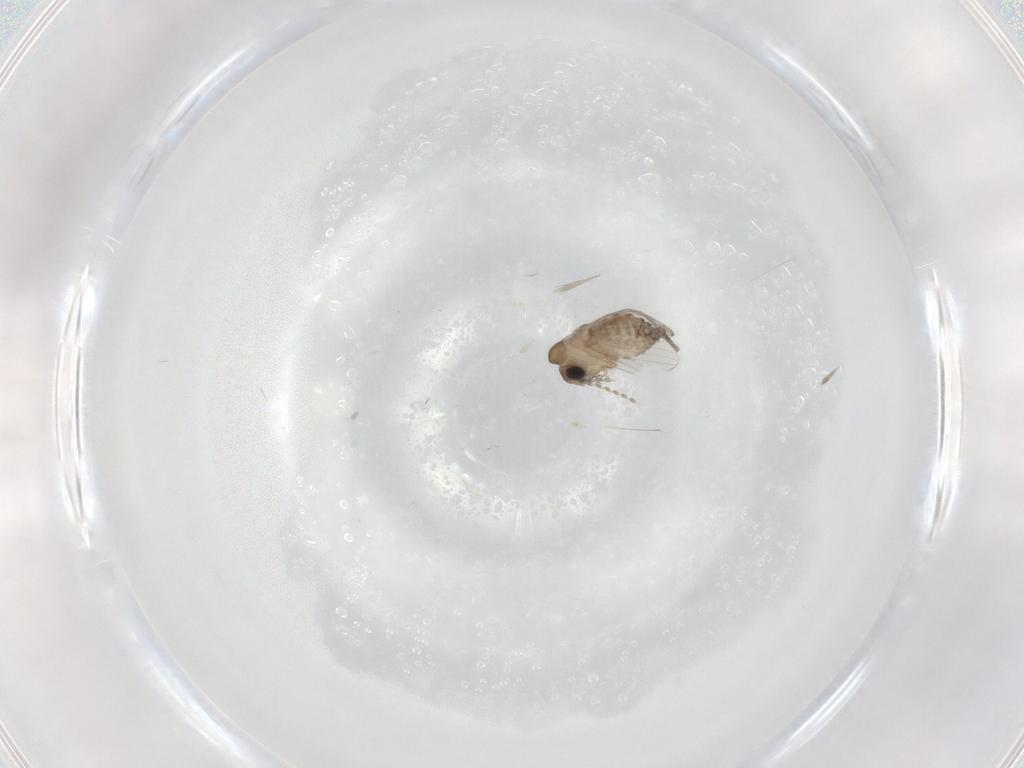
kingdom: Animalia
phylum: Arthropoda
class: Insecta
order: Diptera
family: Psychodidae
